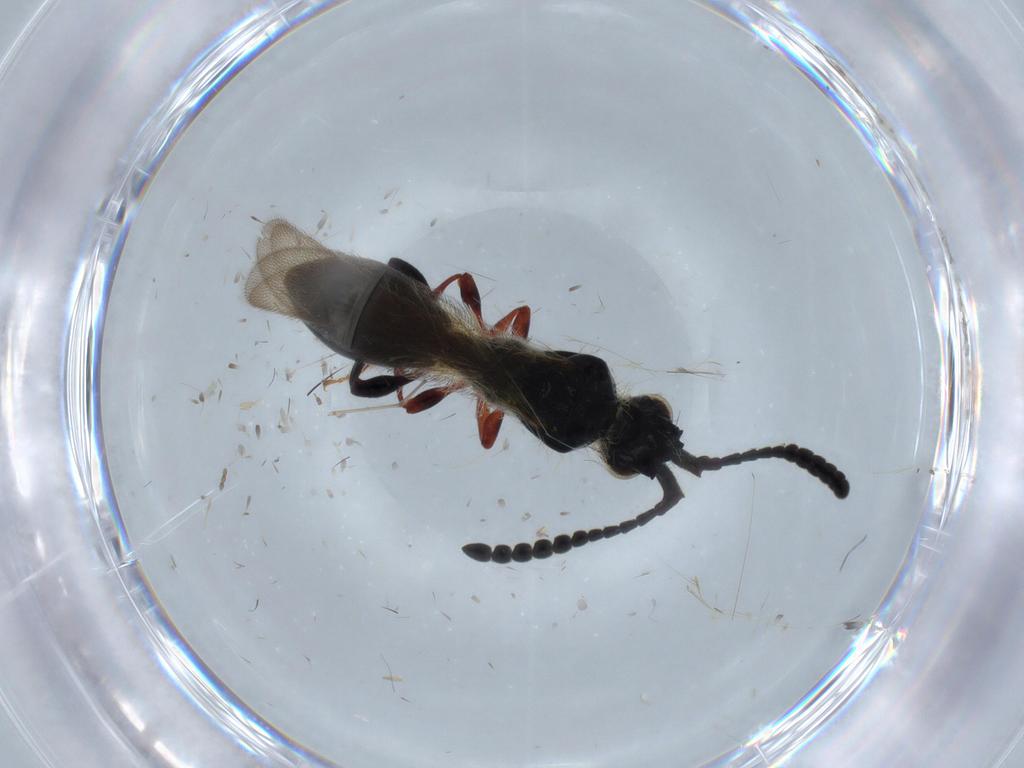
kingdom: Animalia
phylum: Arthropoda
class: Insecta
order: Hymenoptera
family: Diapriidae
